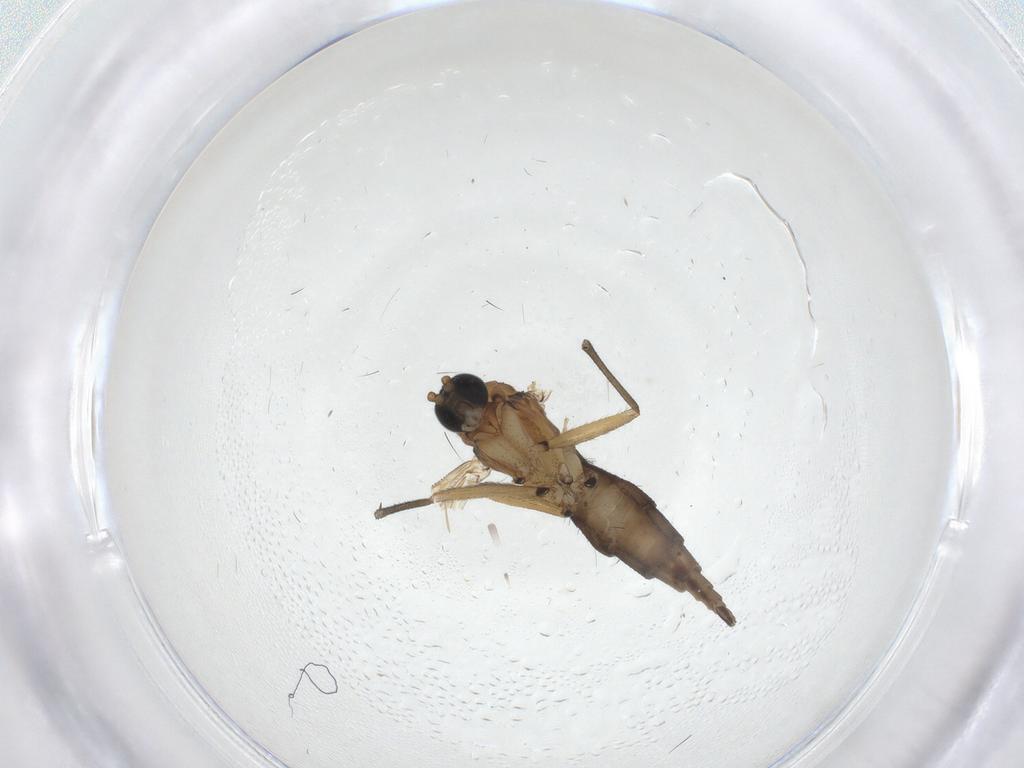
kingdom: Animalia
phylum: Arthropoda
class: Insecta
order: Diptera
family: Sciaridae
